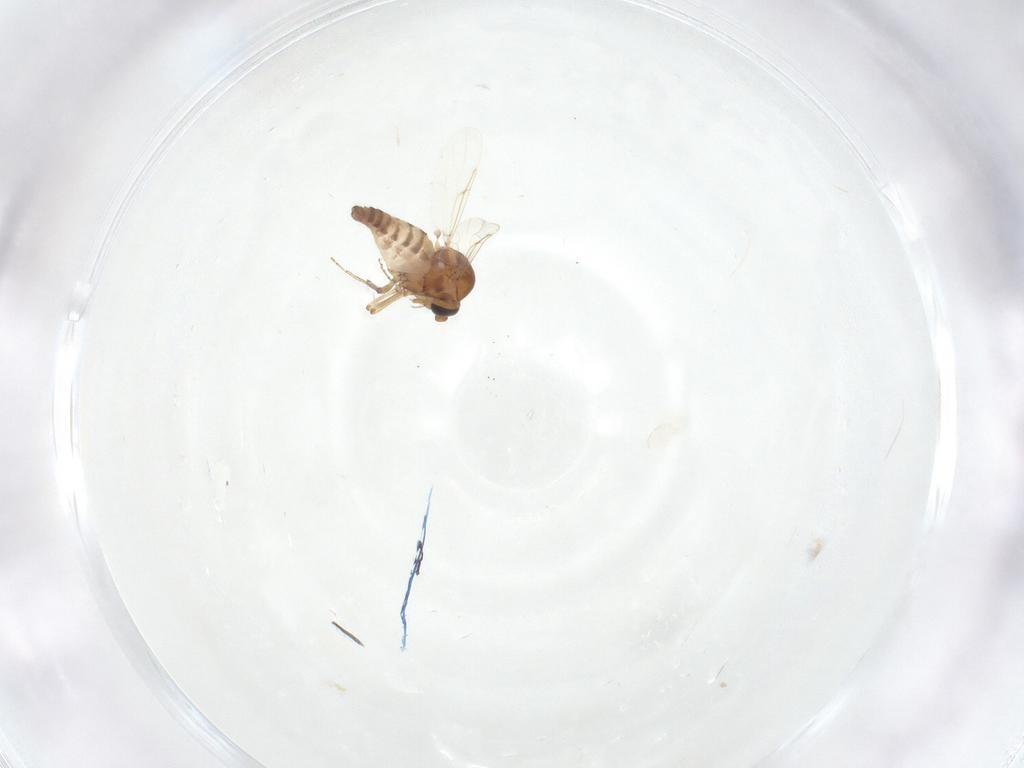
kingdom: Animalia
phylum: Arthropoda
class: Insecta
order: Diptera
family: Cecidomyiidae
